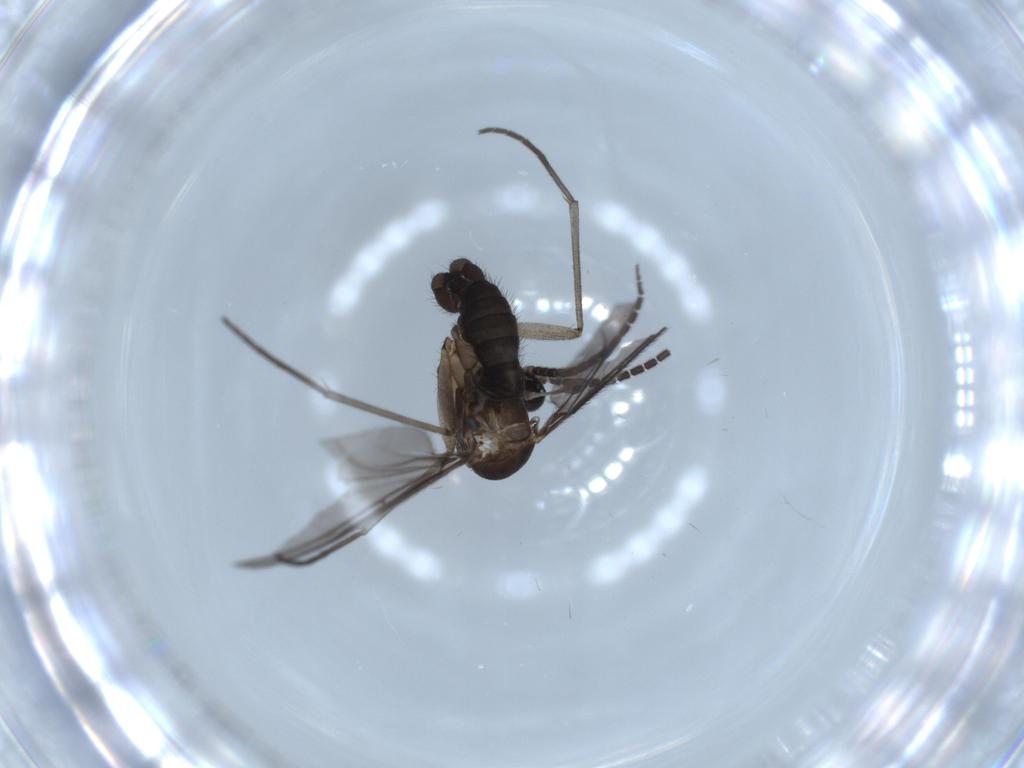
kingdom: Animalia
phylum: Arthropoda
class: Insecta
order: Diptera
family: Sciaridae
